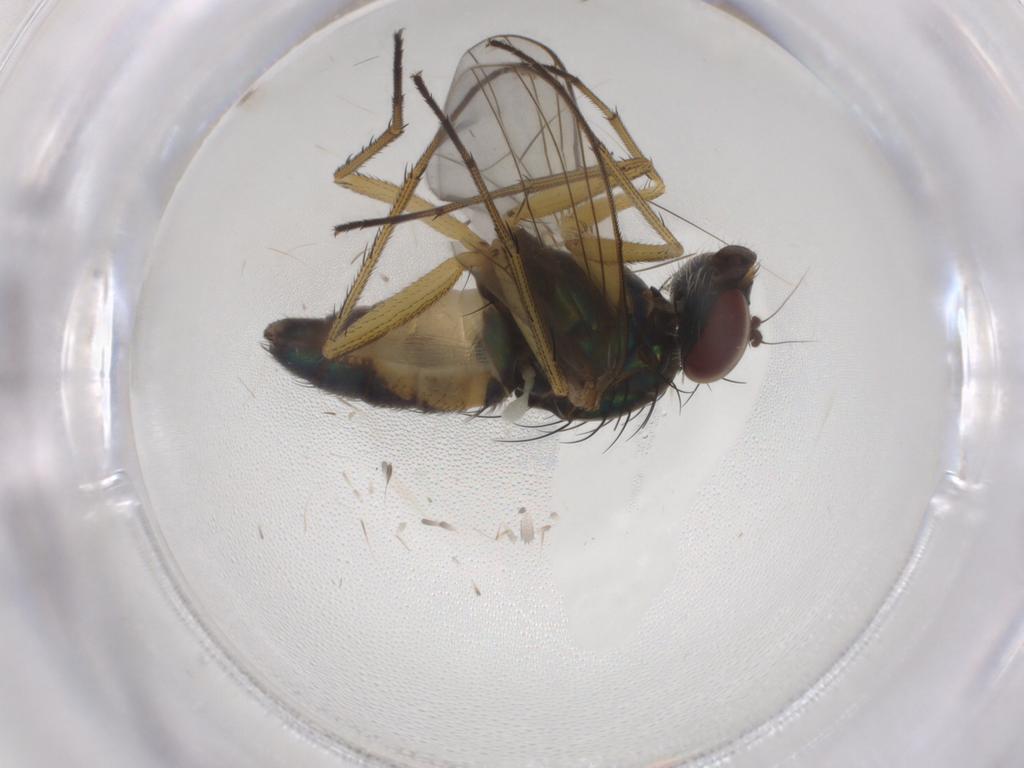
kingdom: Animalia
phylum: Arthropoda
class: Insecta
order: Diptera
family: Dolichopodidae
